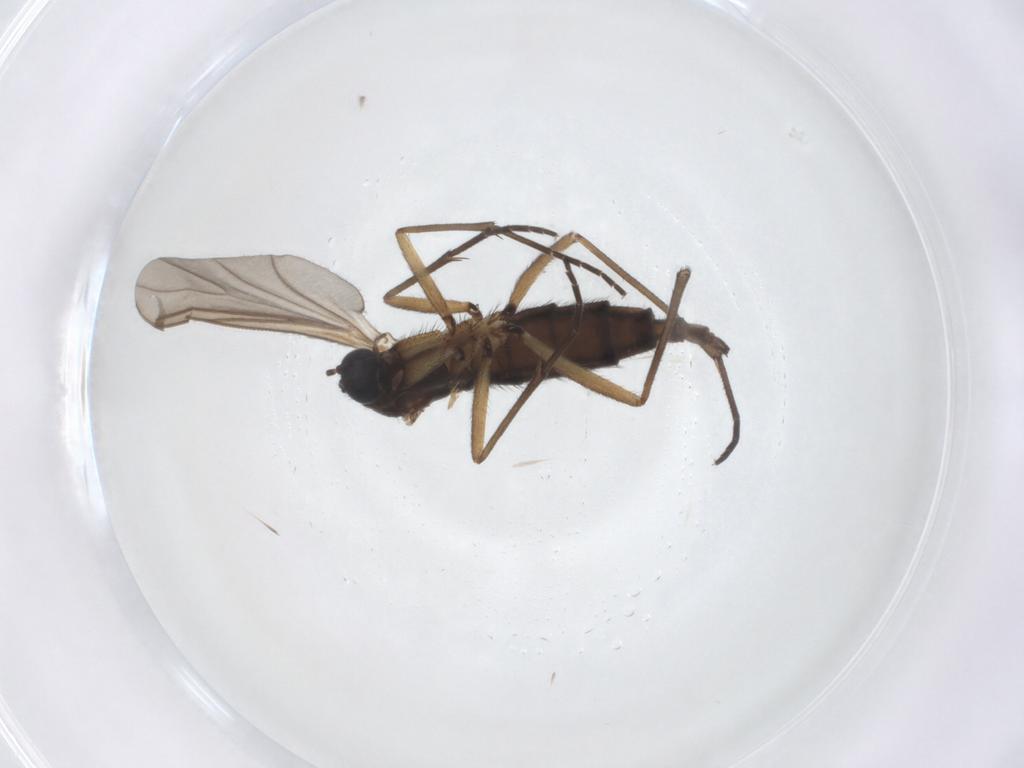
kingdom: Animalia
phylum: Arthropoda
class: Insecta
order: Diptera
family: Sciaridae
